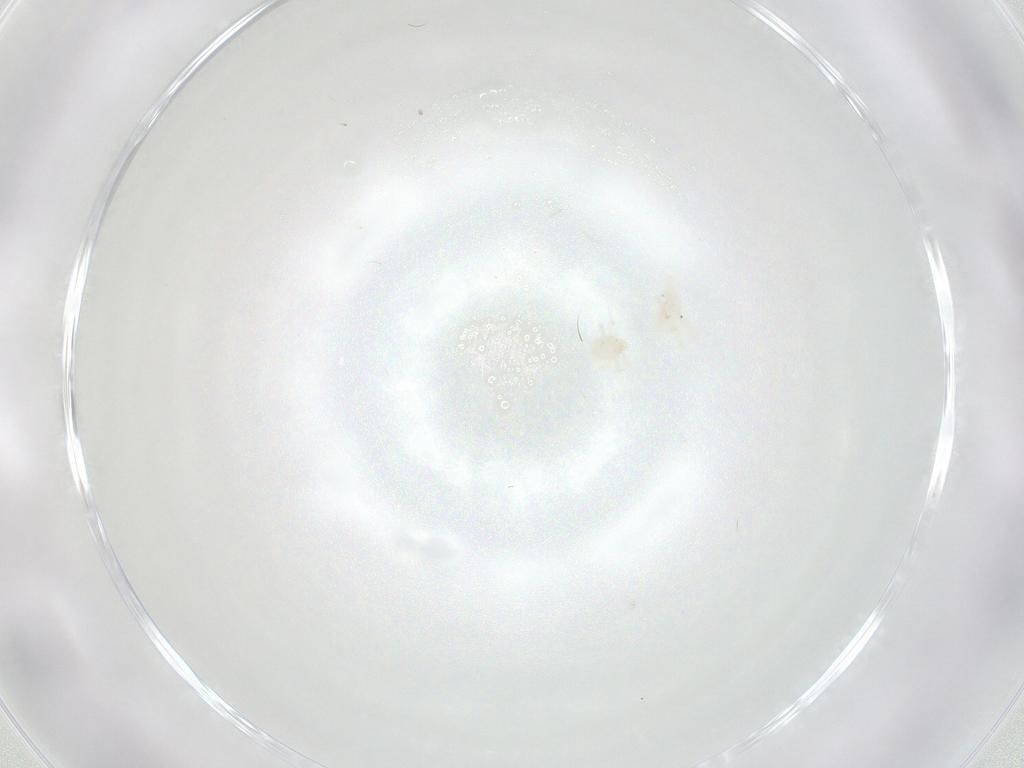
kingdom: Animalia
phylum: Arthropoda
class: Arachnida
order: Trombidiformes
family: Anystidae
